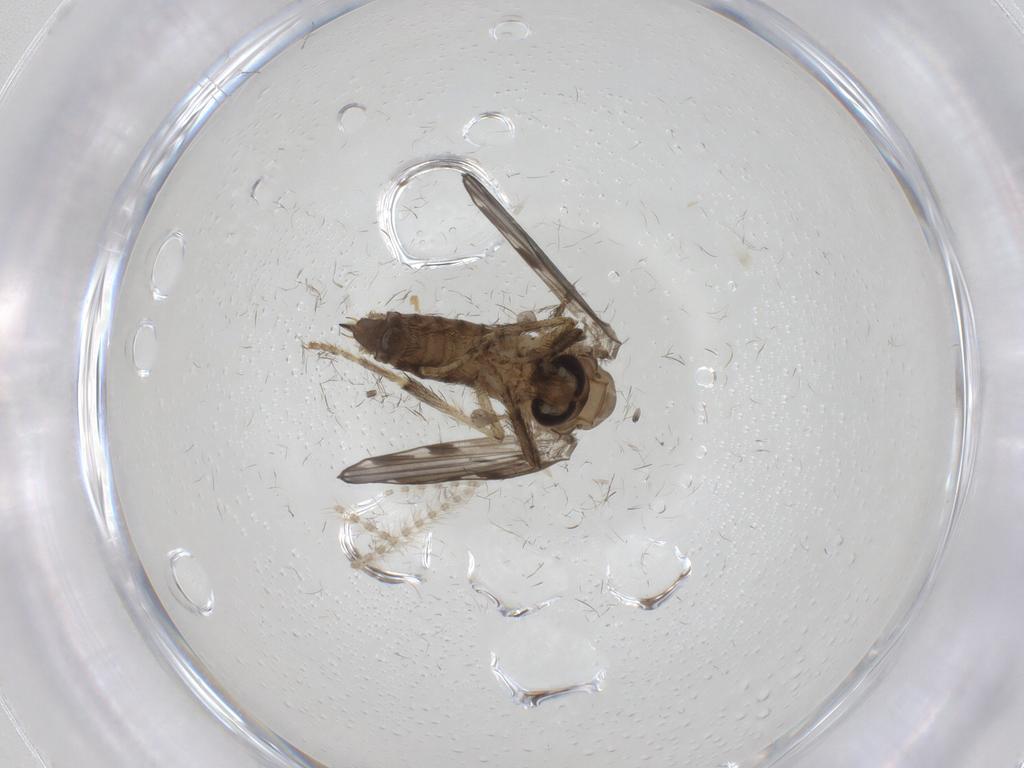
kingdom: Animalia
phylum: Arthropoda
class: Insecta
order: Diptera
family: Psychodidae
